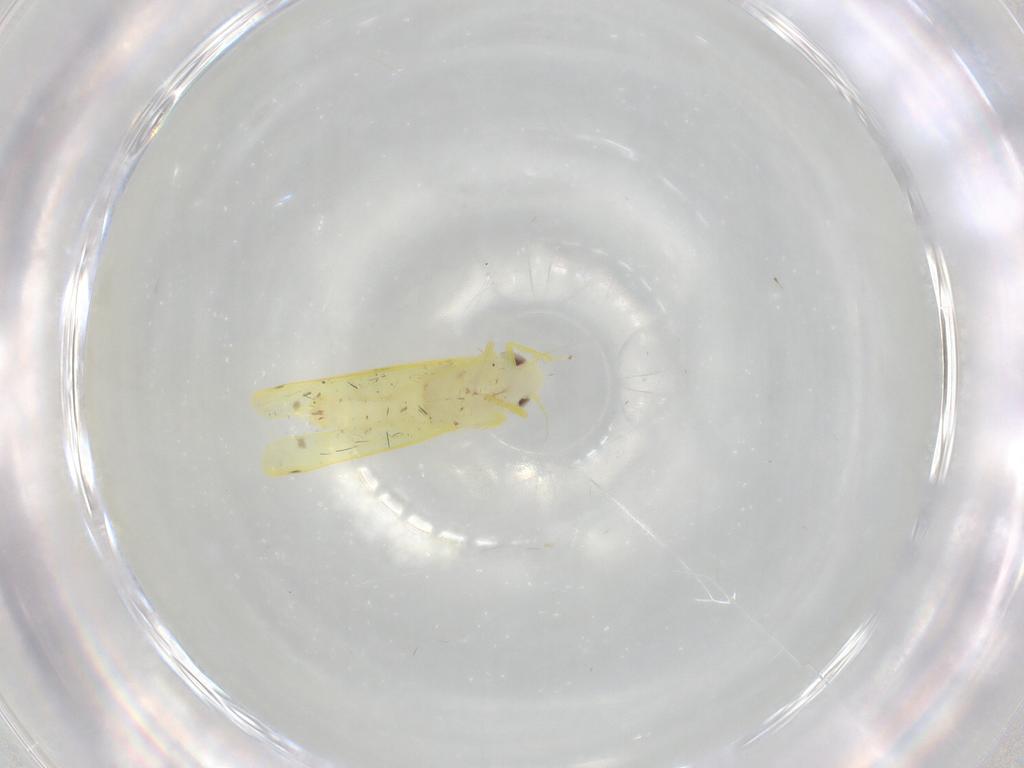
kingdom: Animalia
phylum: Arthropoda
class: Insecta
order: Hemiptera
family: Cicadellidae
